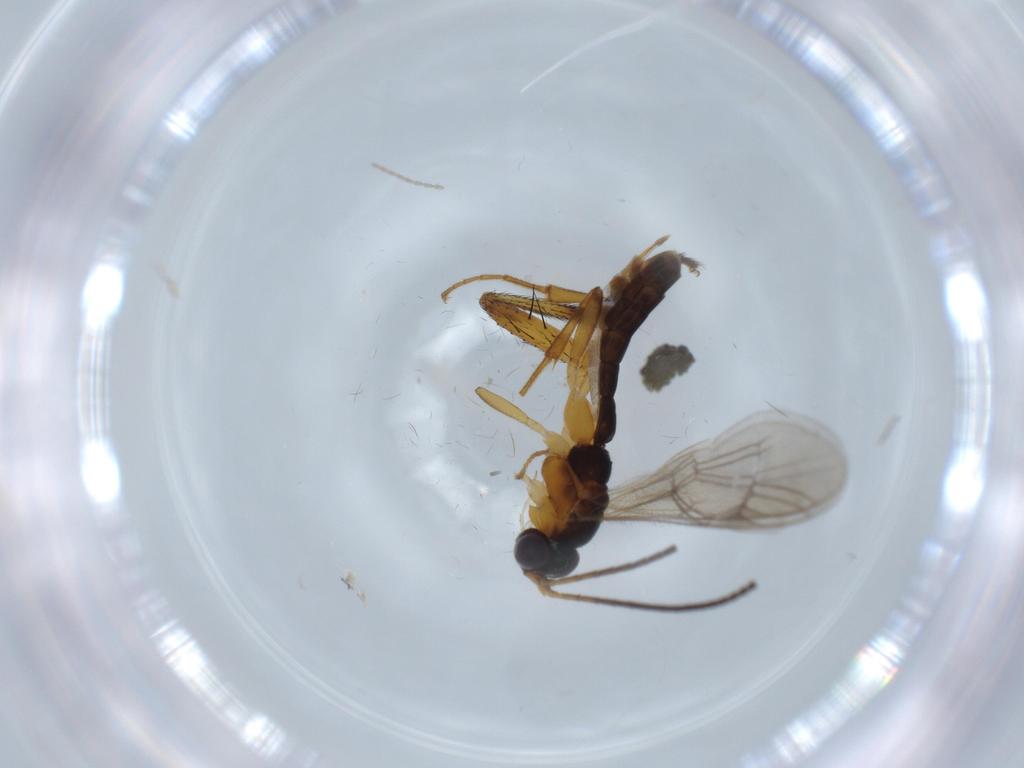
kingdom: Animalia
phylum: Arthropoda
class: Insecta
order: Hymenoptera
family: Ichneumonidae
